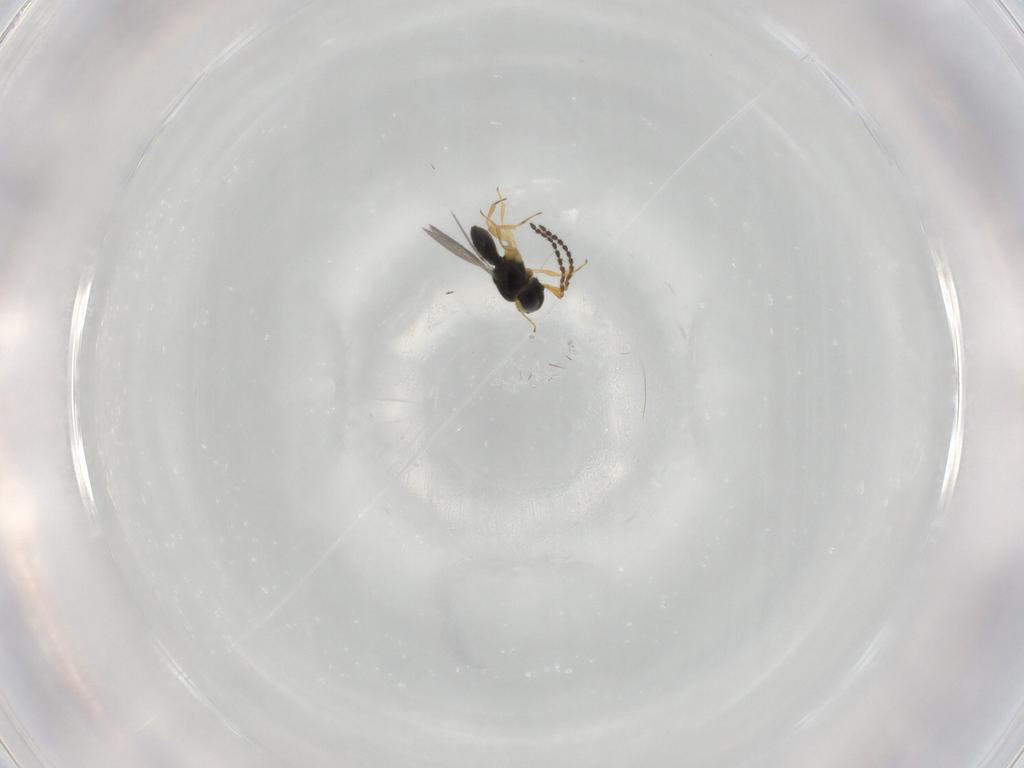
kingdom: Animalia
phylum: Arthropoda
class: Insecta
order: Hymenoptera
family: Scelionidae
